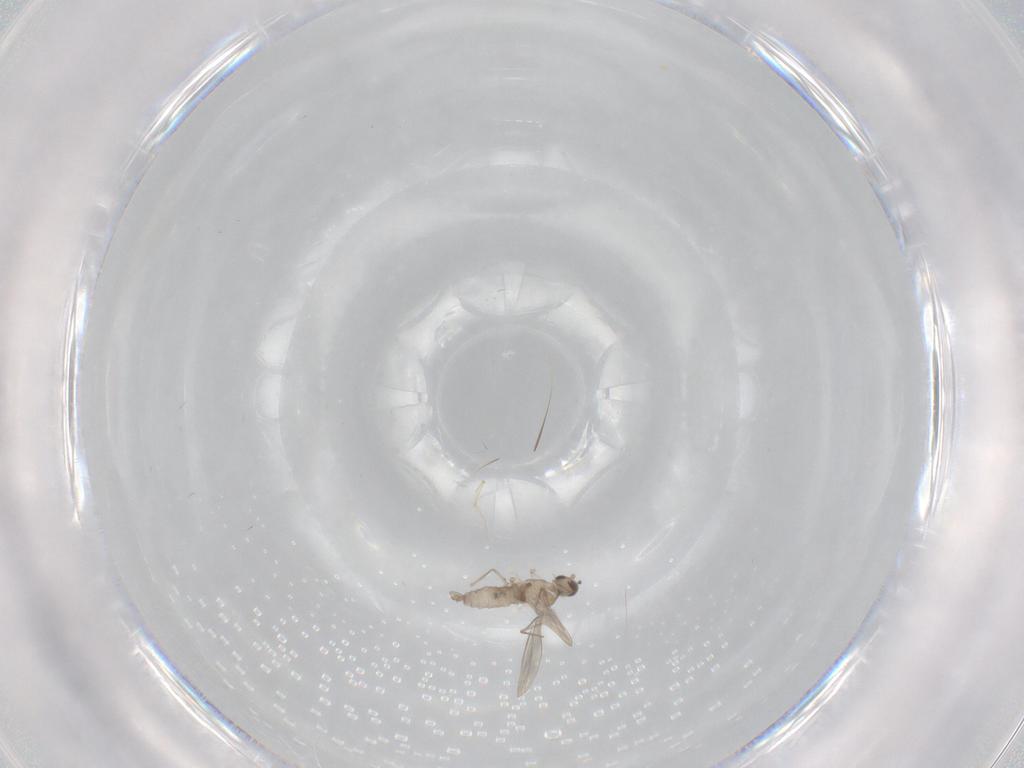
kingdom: Animalia
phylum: Arthropoda
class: Insecta
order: Diptera
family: Cecidomyiidae
